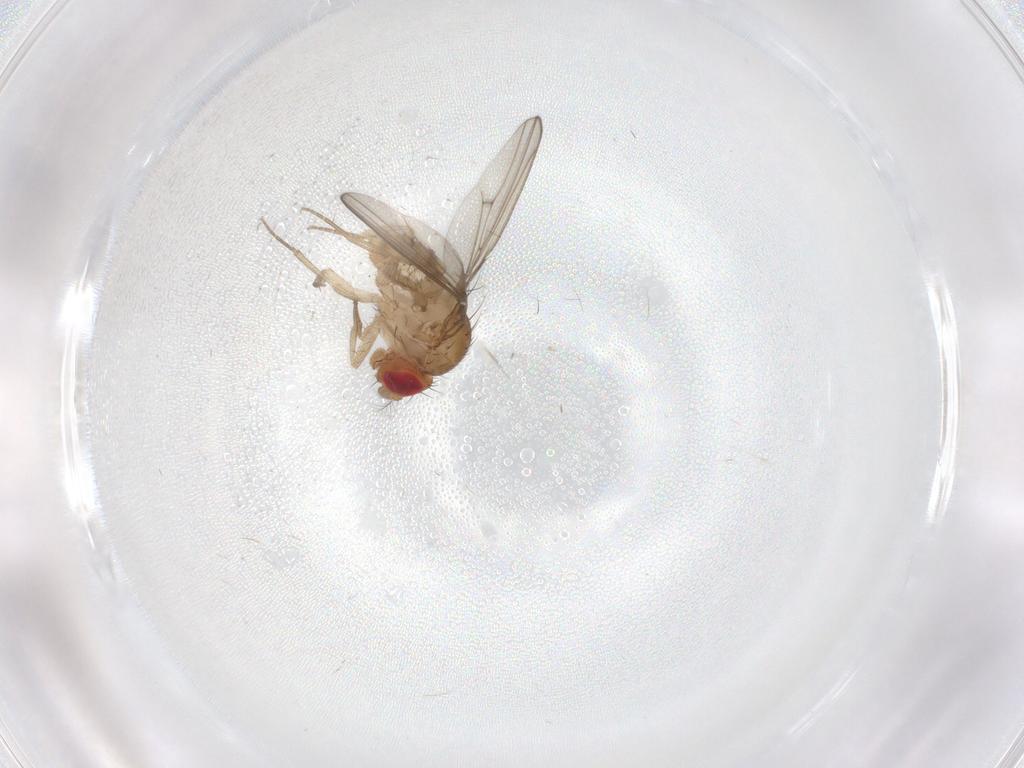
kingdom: Animalia
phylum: Arthropoda
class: Insecta
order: Diptera
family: Drosophilidae
